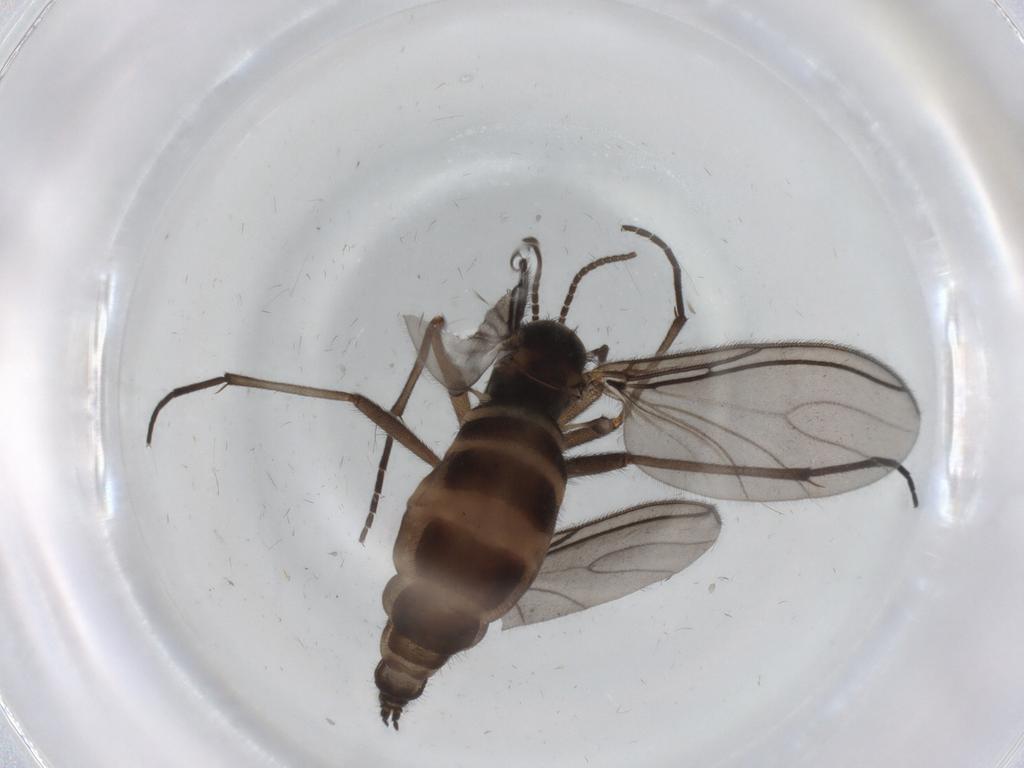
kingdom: Animalia
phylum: Arthropoda
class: Insecta
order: Diptera
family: Sciaridae
